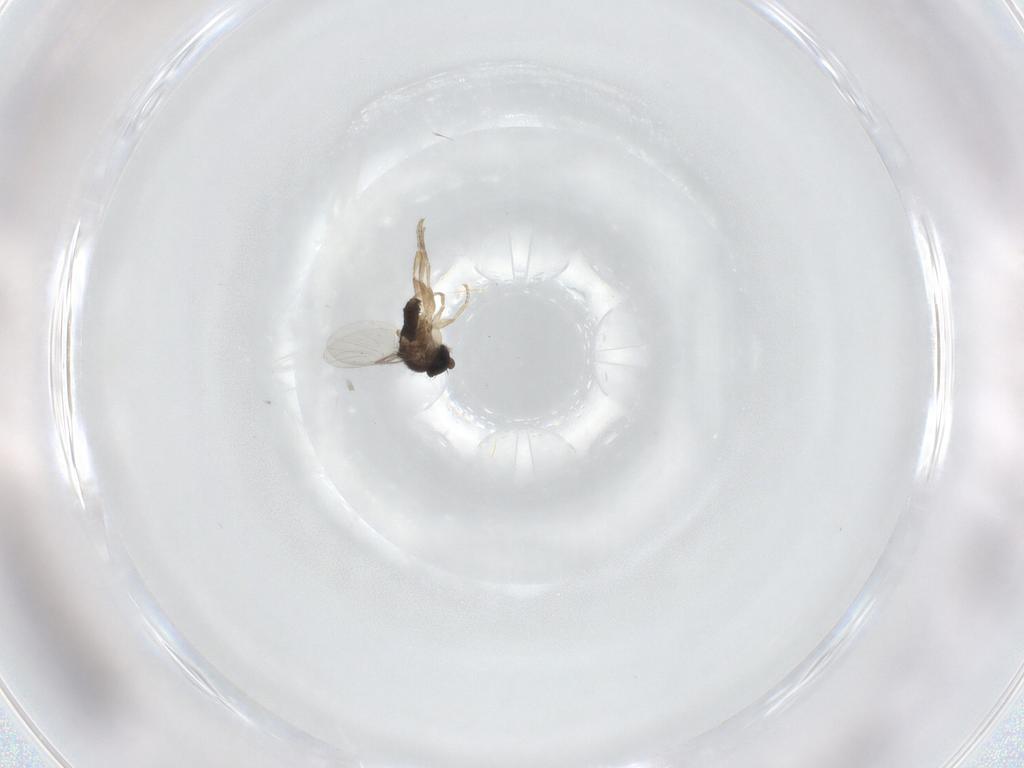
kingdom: Animalia
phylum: Arthropoda
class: Insecta
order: Diptera
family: Phoridae
